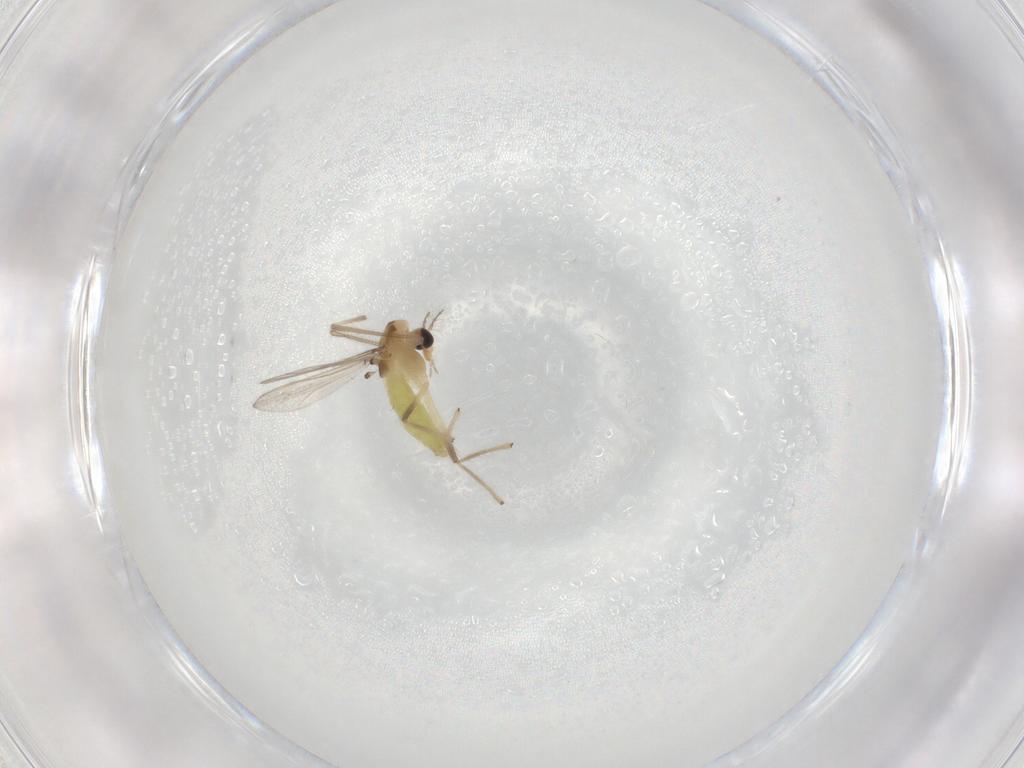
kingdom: Animalia
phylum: Arthropoda
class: Insecta
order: Diptera
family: Chironomidae
